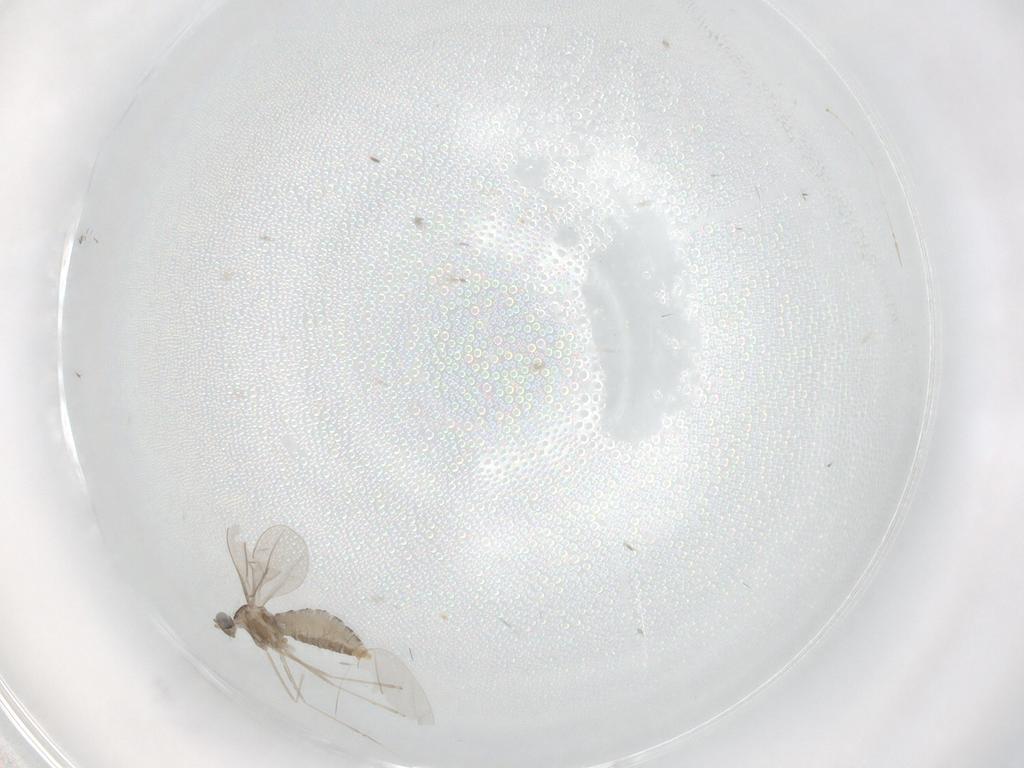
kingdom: Animalia
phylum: Arthropoda
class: Insecta
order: Diptera
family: Cecidomyiidae
